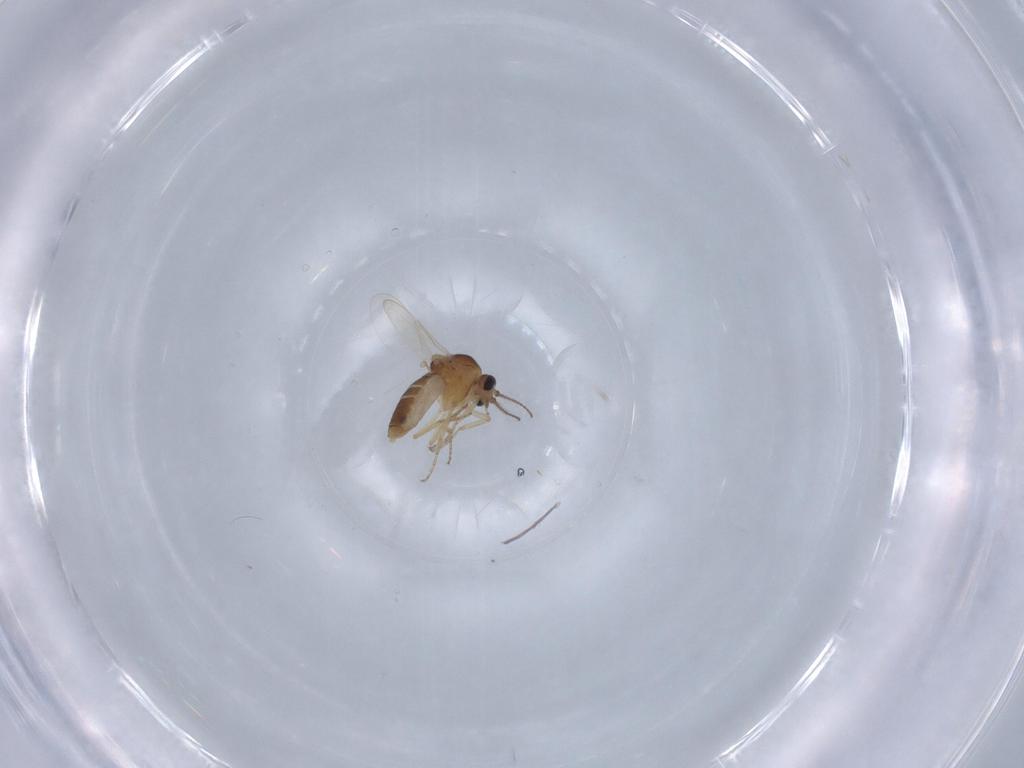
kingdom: Animalia
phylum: Arthropoda
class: Insecta
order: Diptera
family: Ceratopogonidae
